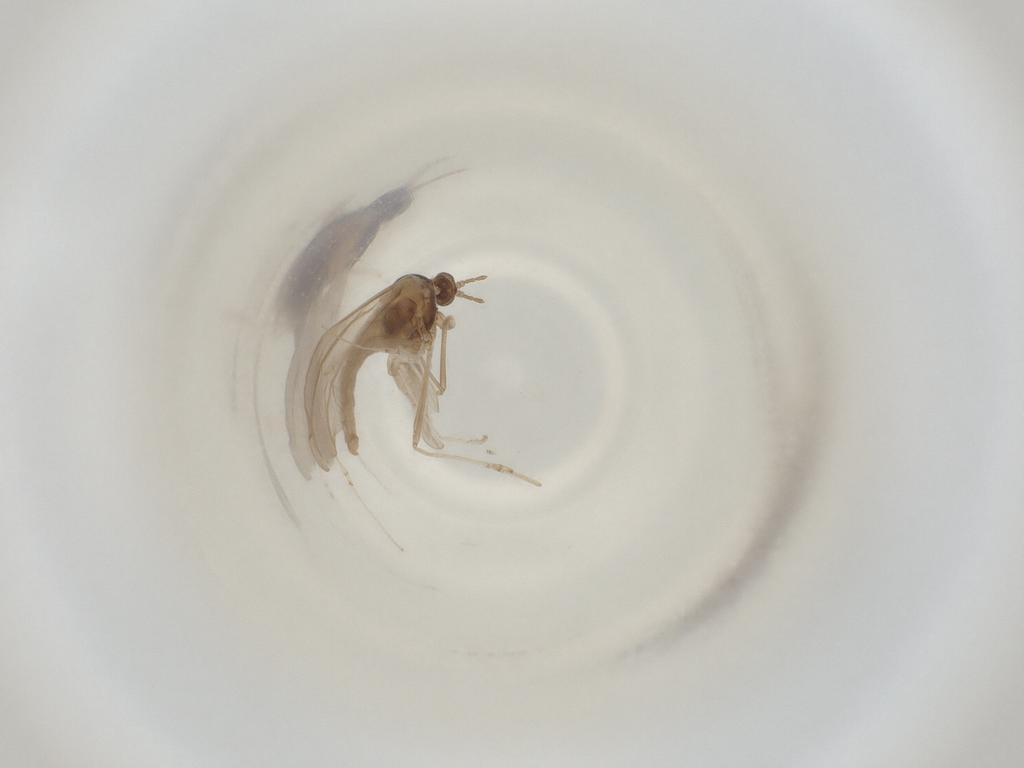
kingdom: Animalia
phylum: Arthropoda
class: Insecta
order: Diptera
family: Cecidomyiidae
